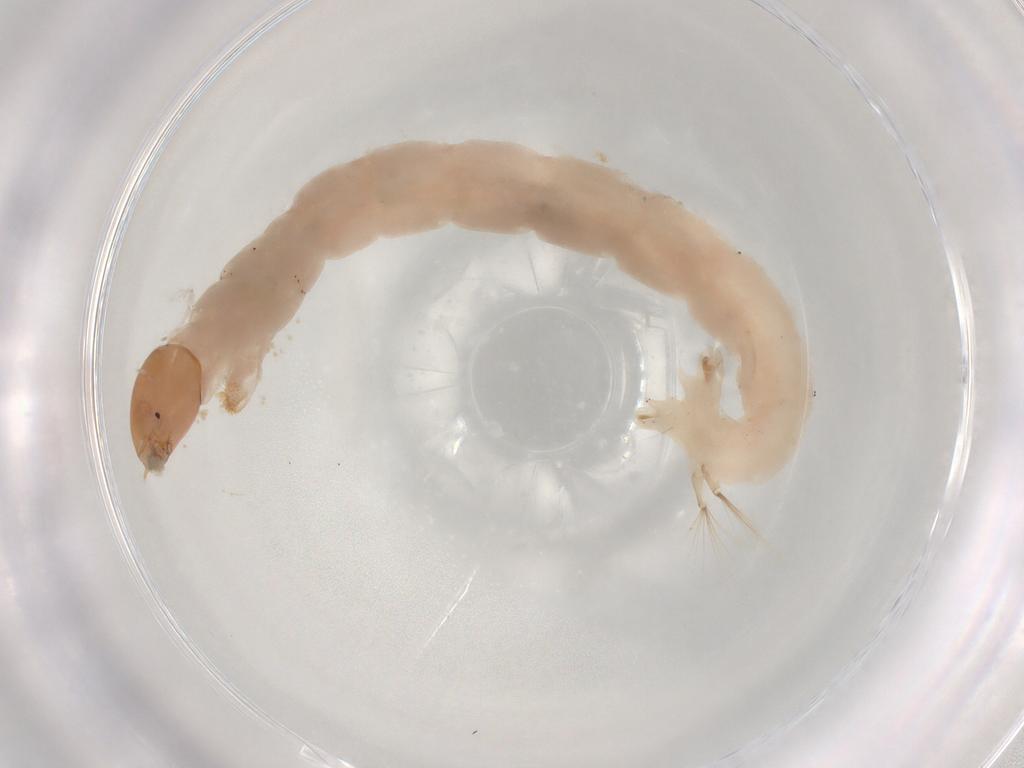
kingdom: Animalia
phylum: Arthropoda
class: Insecta
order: Diptera
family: Chironomidae
